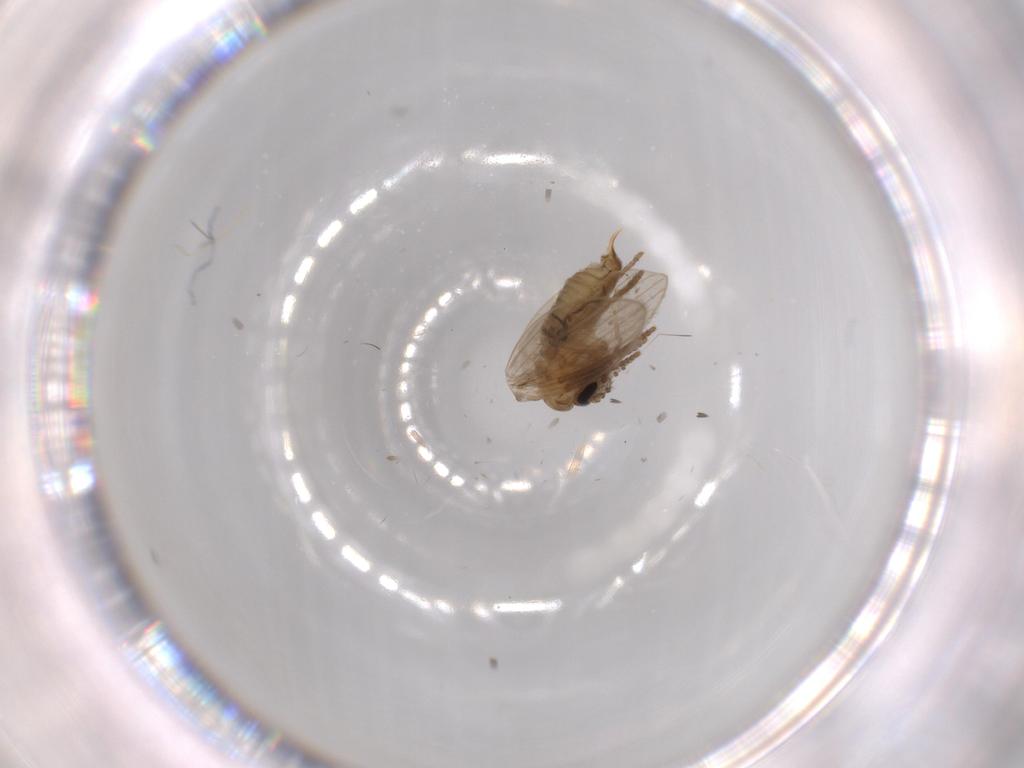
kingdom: Animalia
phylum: Arthropoda
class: Insecta
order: Diptera
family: Psychodidae
